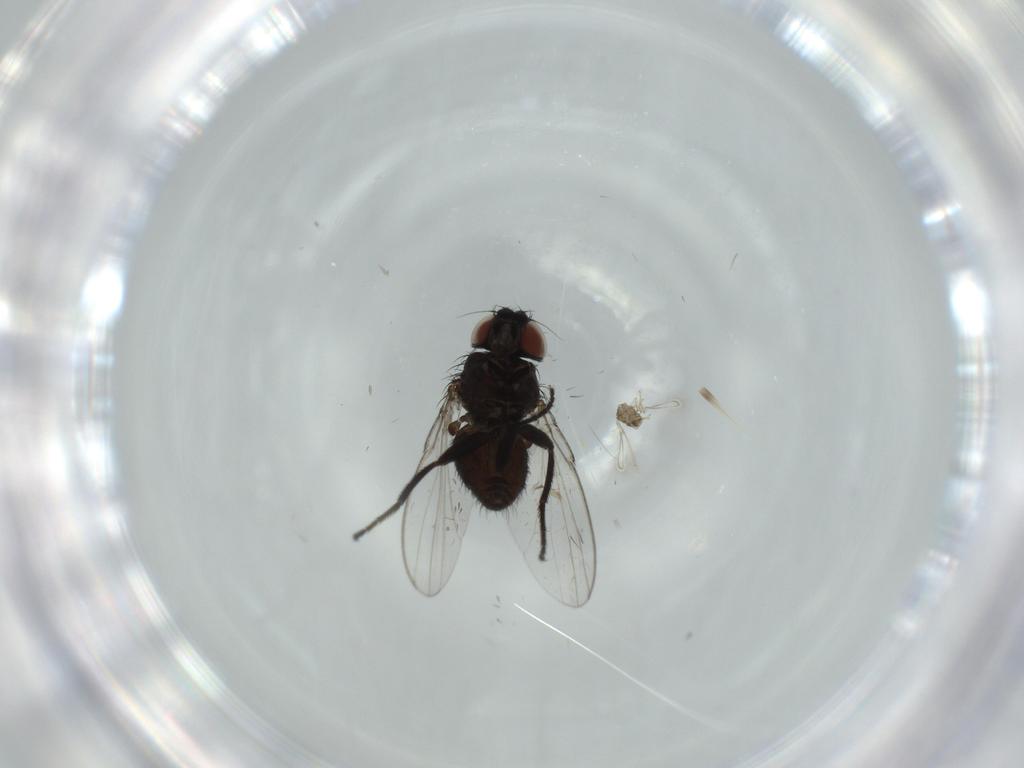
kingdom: Animalia
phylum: Arthropoda
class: Insecta
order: Diptera
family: Milichiidae
